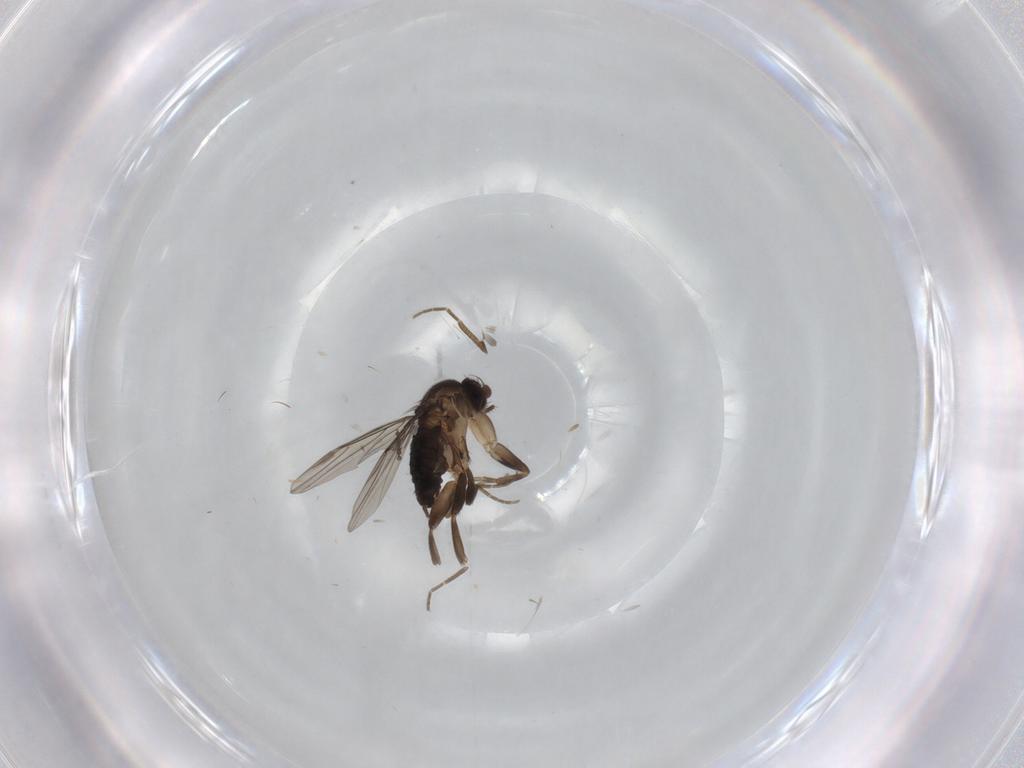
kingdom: Animalia
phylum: Arthropoda
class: Insecta
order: Diptera
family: Phoridae
